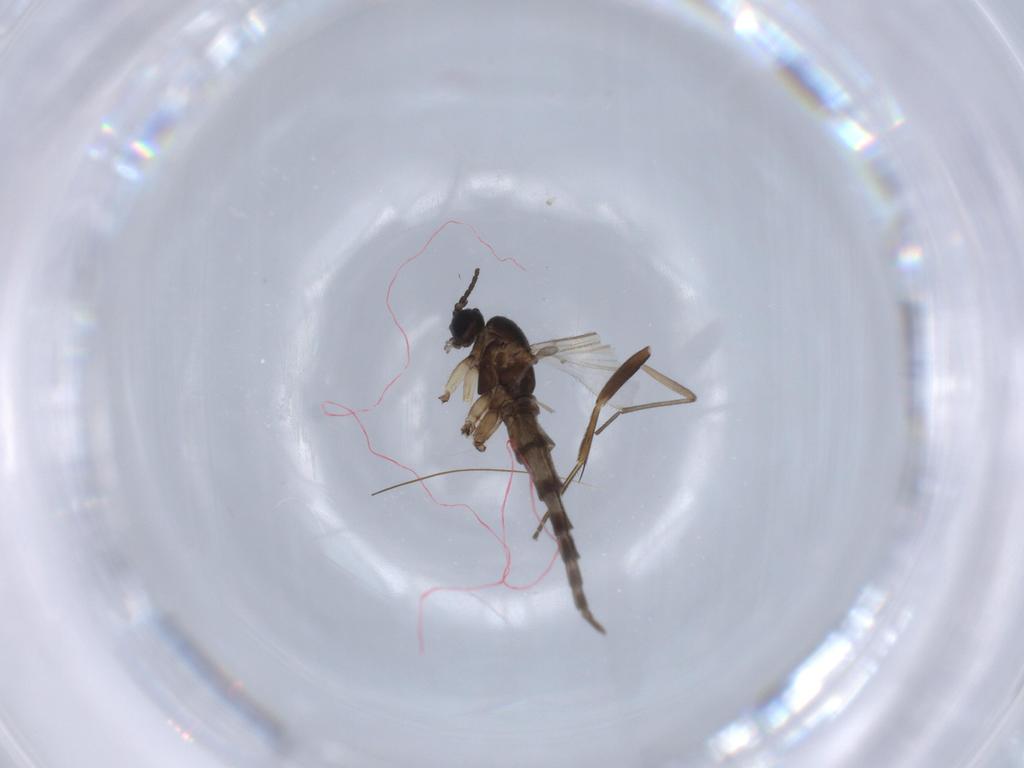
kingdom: Animalia
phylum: Arthropoda
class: Insecta
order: Diptera
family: Sciaridae
